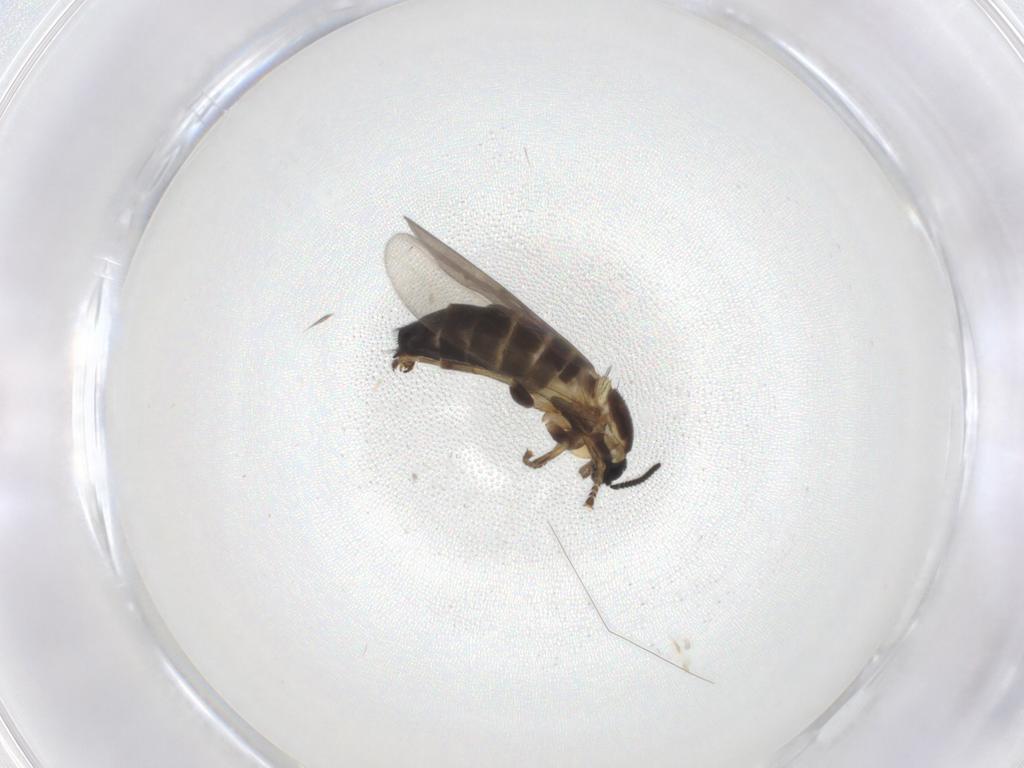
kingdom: Animalia
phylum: Arthropoda
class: Insecta
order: Diptera
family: Scatopsidae
